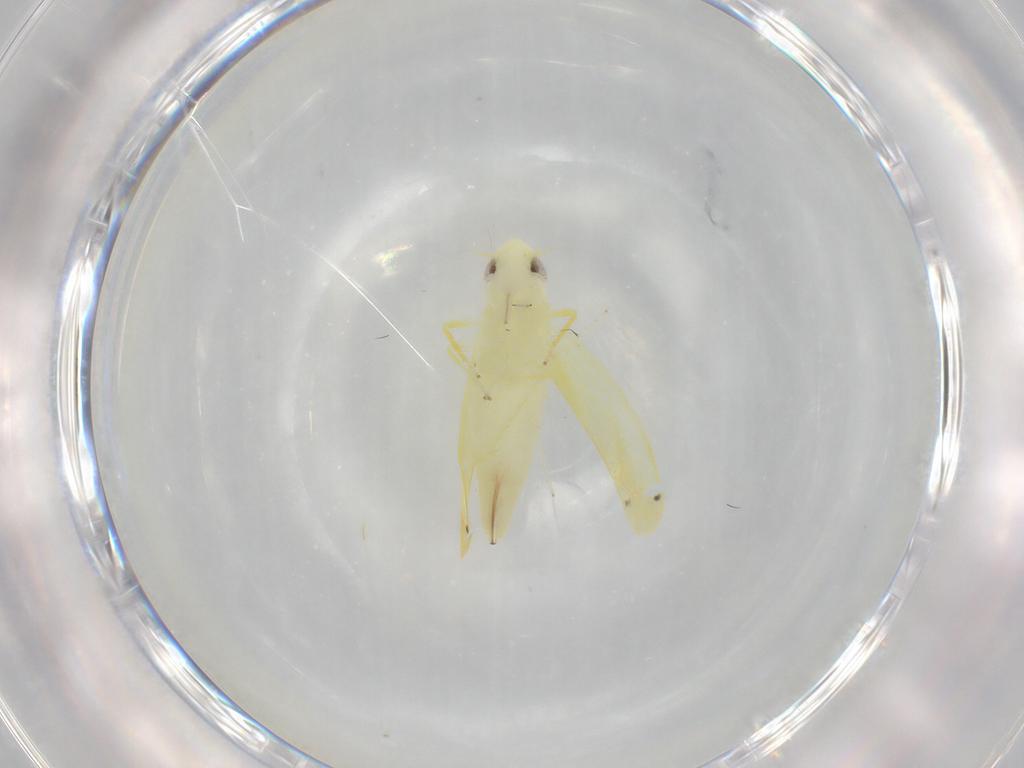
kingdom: Animalia
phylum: Arthropoda
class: Insecta
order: Hemiptera
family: Cicadellidae
